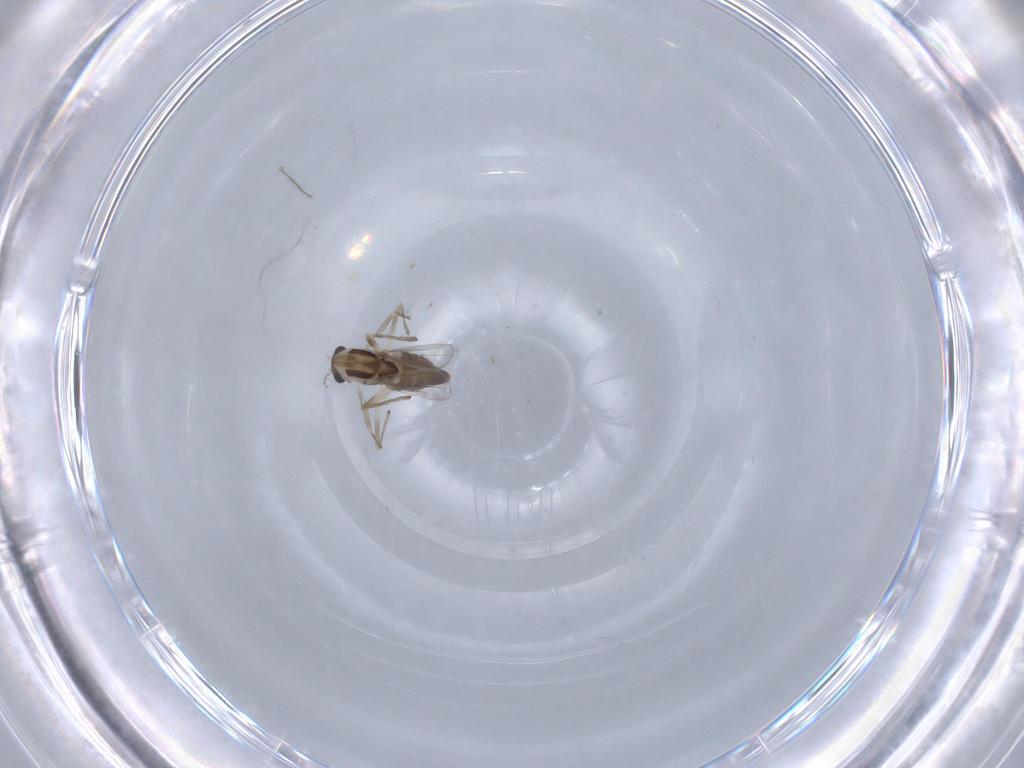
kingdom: Animalia
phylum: Arthropoda
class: Insecta
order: Diptera
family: Chironomidae
